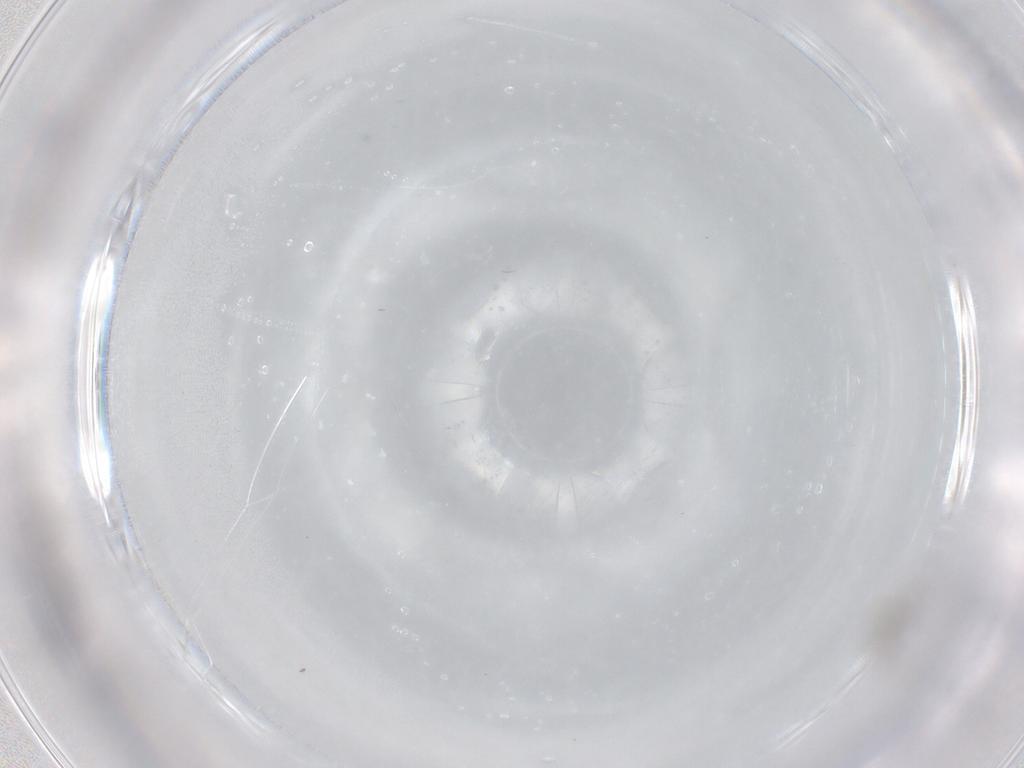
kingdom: Animalia
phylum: Arthropoda
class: Insecta
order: Diptera
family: Cecidomyiidae
